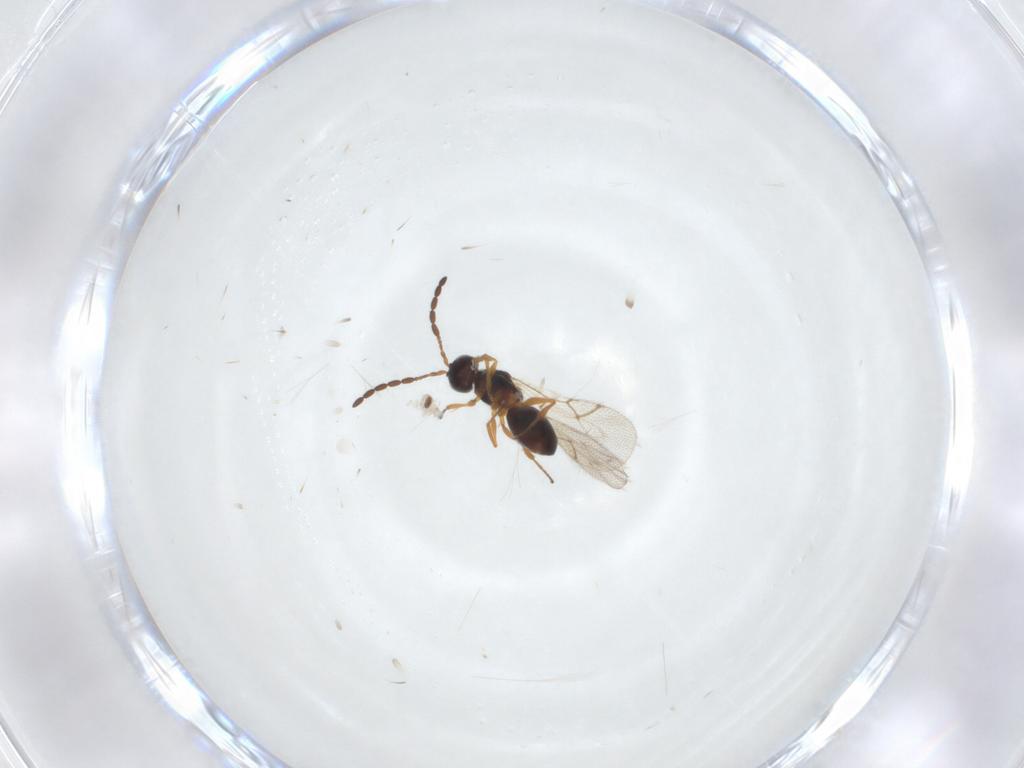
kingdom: Animalia
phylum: Arthropoda
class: Insecta
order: Hymenoptera
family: Figitidae
